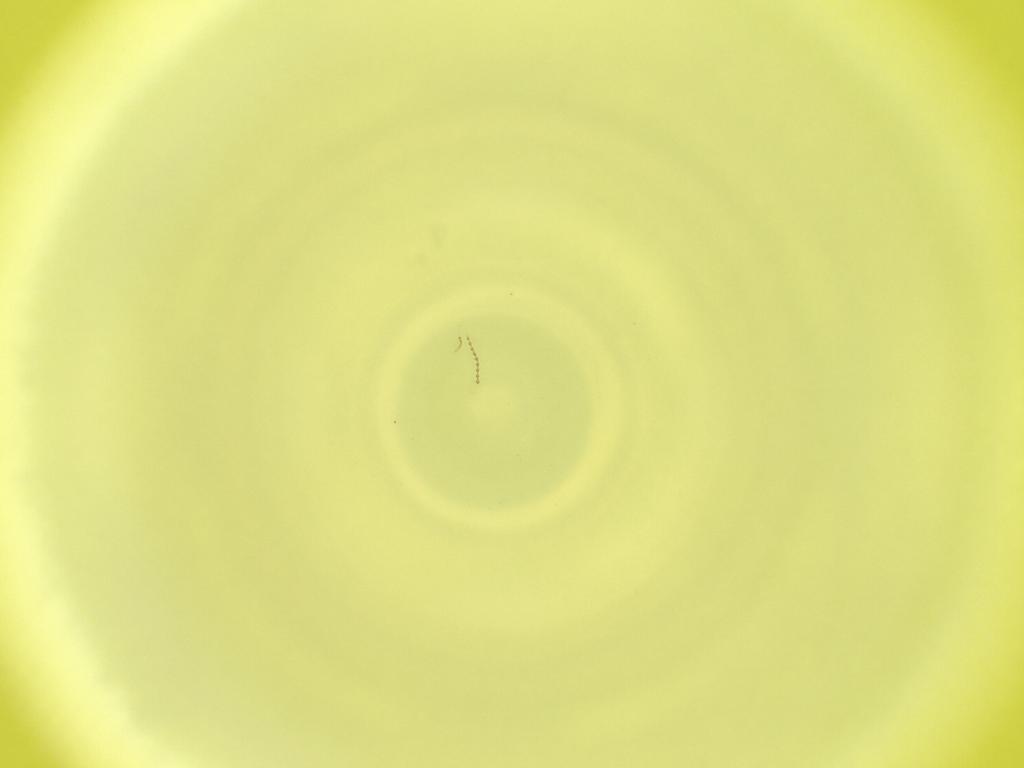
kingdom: Animalia
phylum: Arthropoda
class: Insecta
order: Diptera
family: Cecidomyiidae
